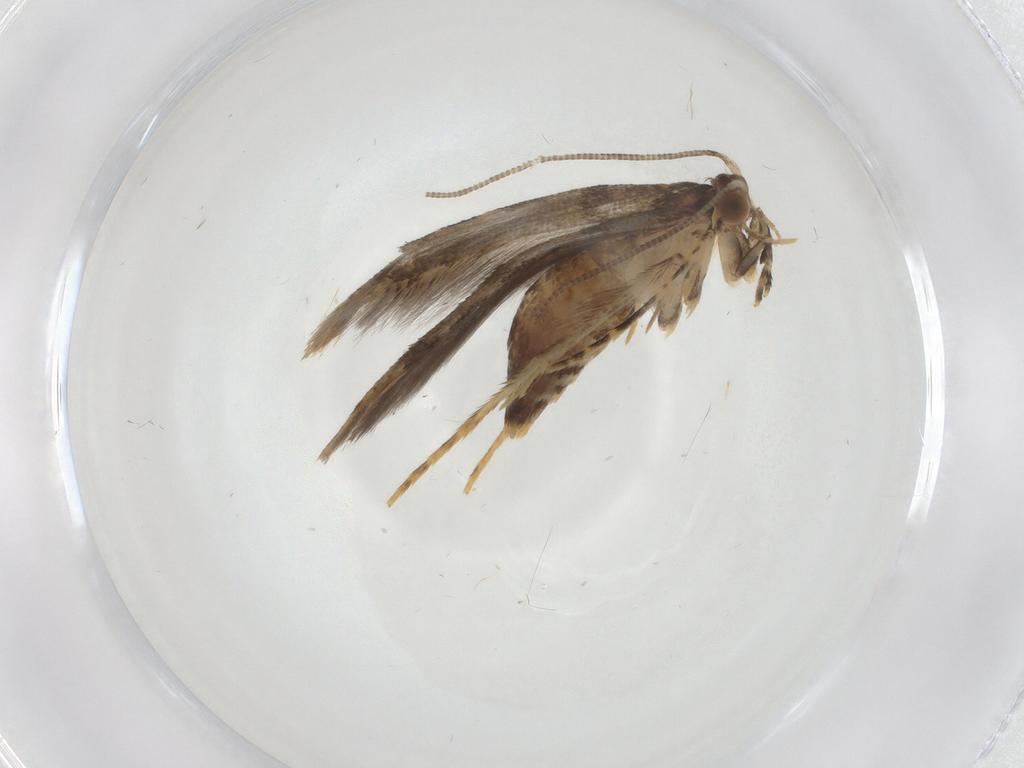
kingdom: Animalia
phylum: Arthropoda
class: Insecta
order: Lepidoptera
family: Tineidae
